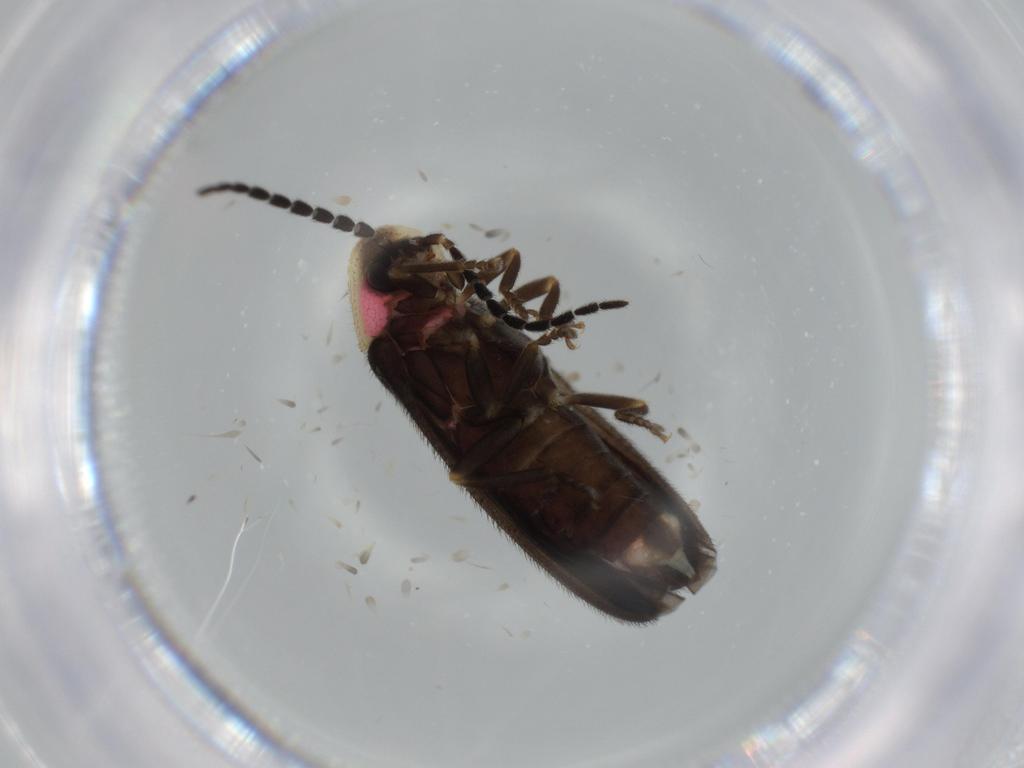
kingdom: Animalia
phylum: Arthropoda
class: Insecta
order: Coleoptera
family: Lampyridae
